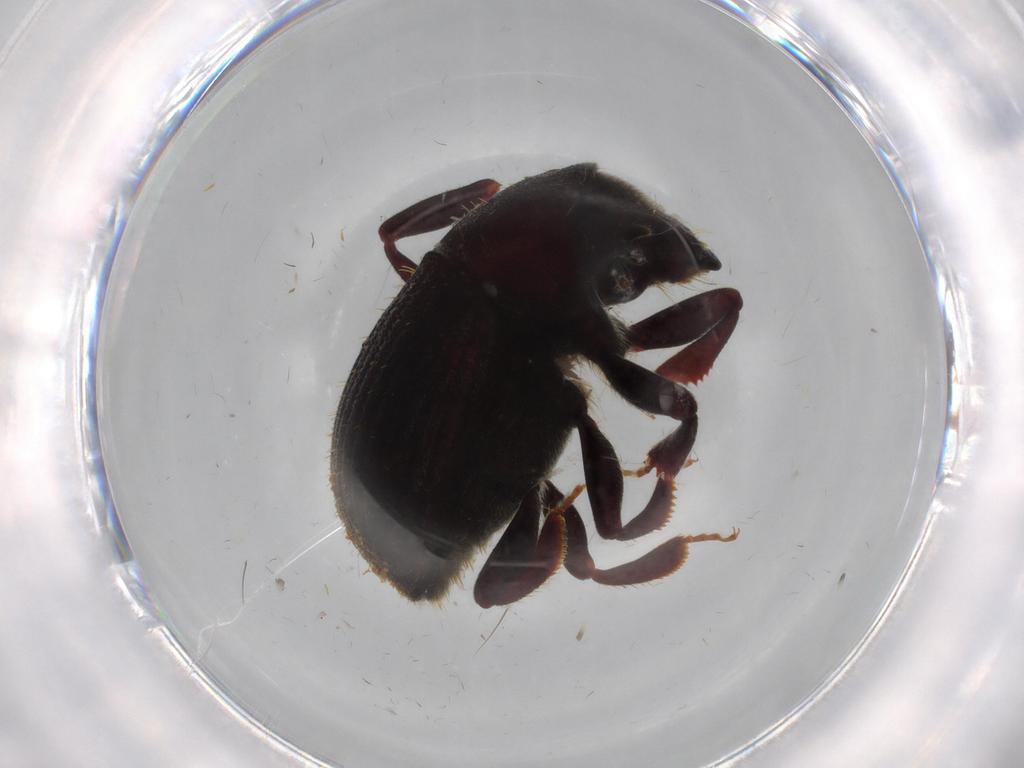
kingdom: Animalia
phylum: Arthropoda
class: Insecta
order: Coleoptera
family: Curculionidae
